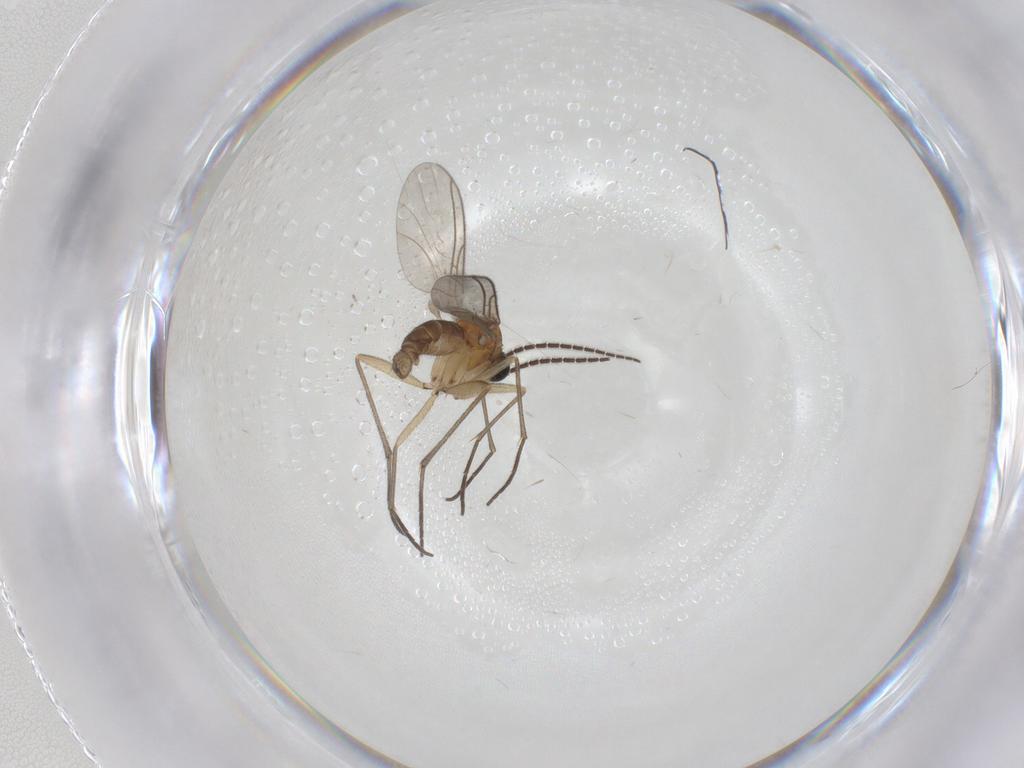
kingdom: Animalia
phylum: Arthropoda
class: Insecta
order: Diptera
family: Sciaridae
